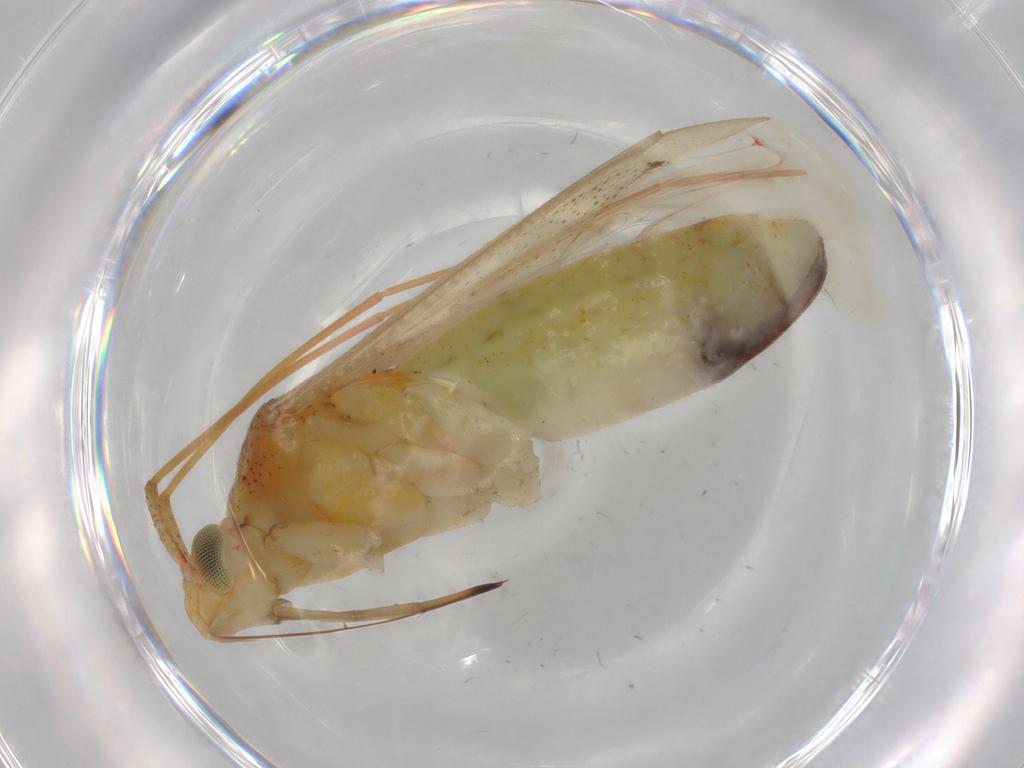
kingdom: Animalia
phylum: Arthropoda
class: Insecta
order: Hemiptera
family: Miridae
